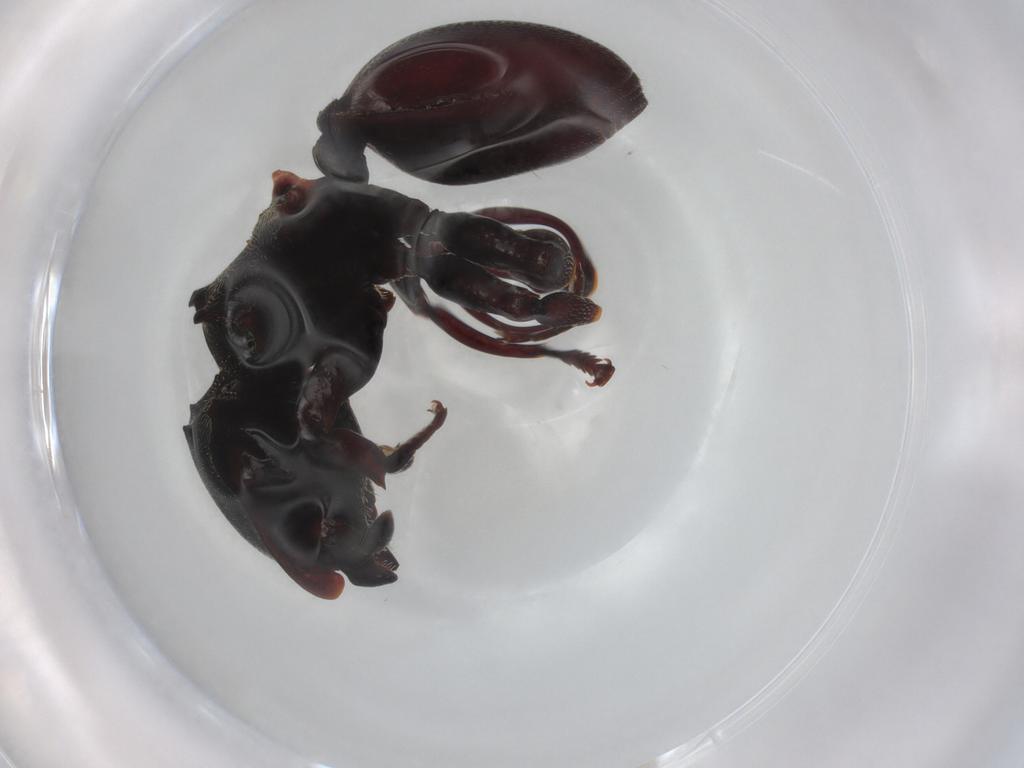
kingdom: Animalia
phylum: Arthropoda
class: Insecta
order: Hymenoptera
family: Formicidae
